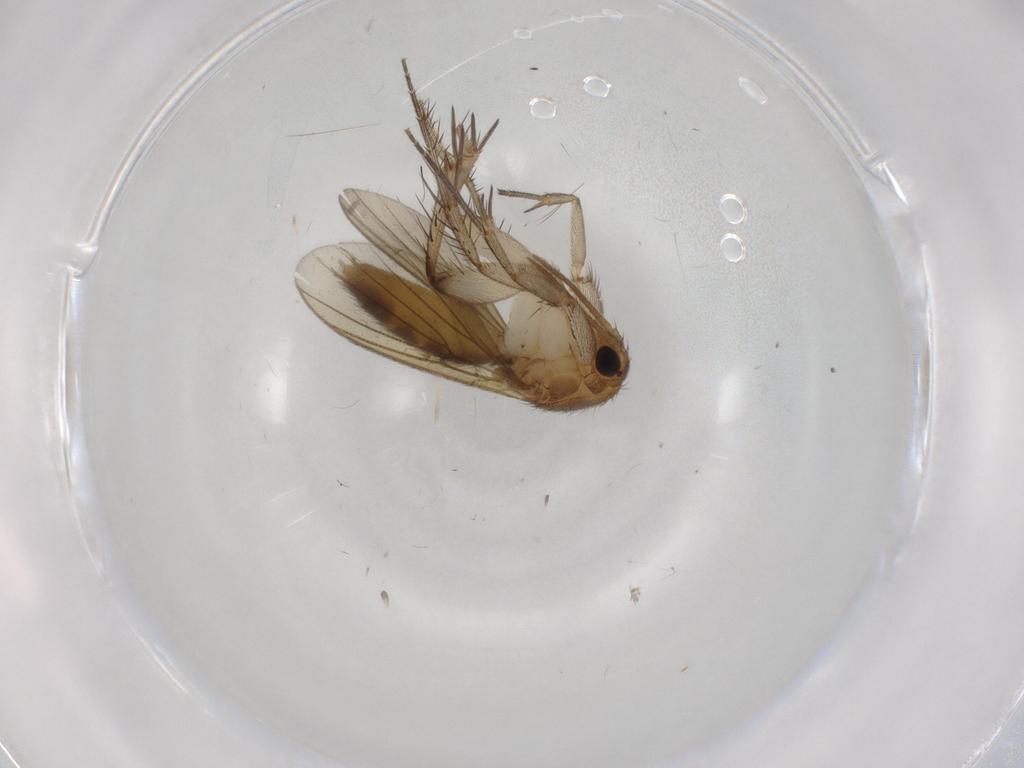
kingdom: Animalia
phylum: Arthropoda
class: Insecta
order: Diptera
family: Mycetophilidae
